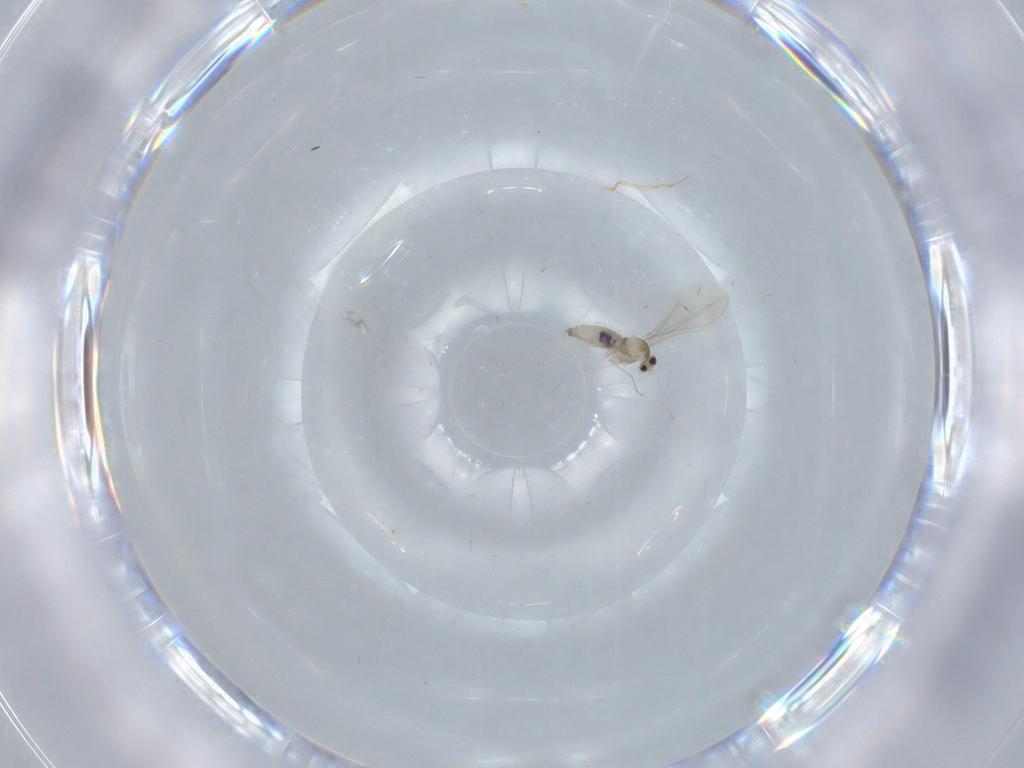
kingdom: Animalia
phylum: Arthropoda
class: Insecta
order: Diptera
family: Cecidomyiidae
